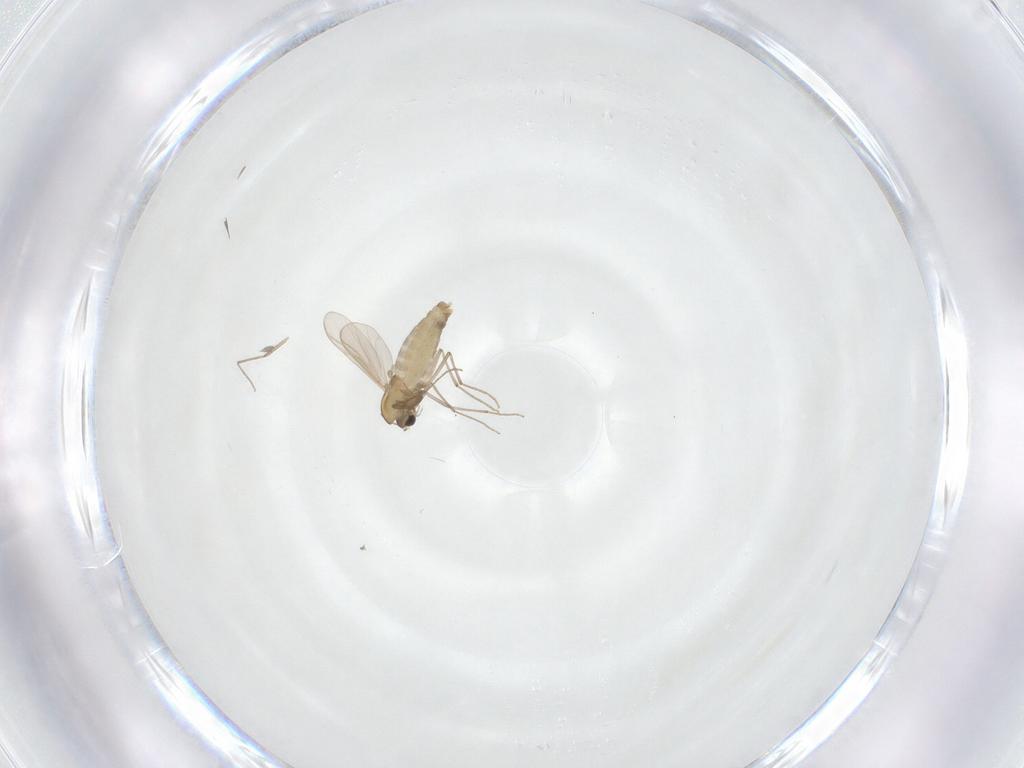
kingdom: Animalia
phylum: Arthropoda
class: Insecta
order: Diptera
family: Chironomidae
